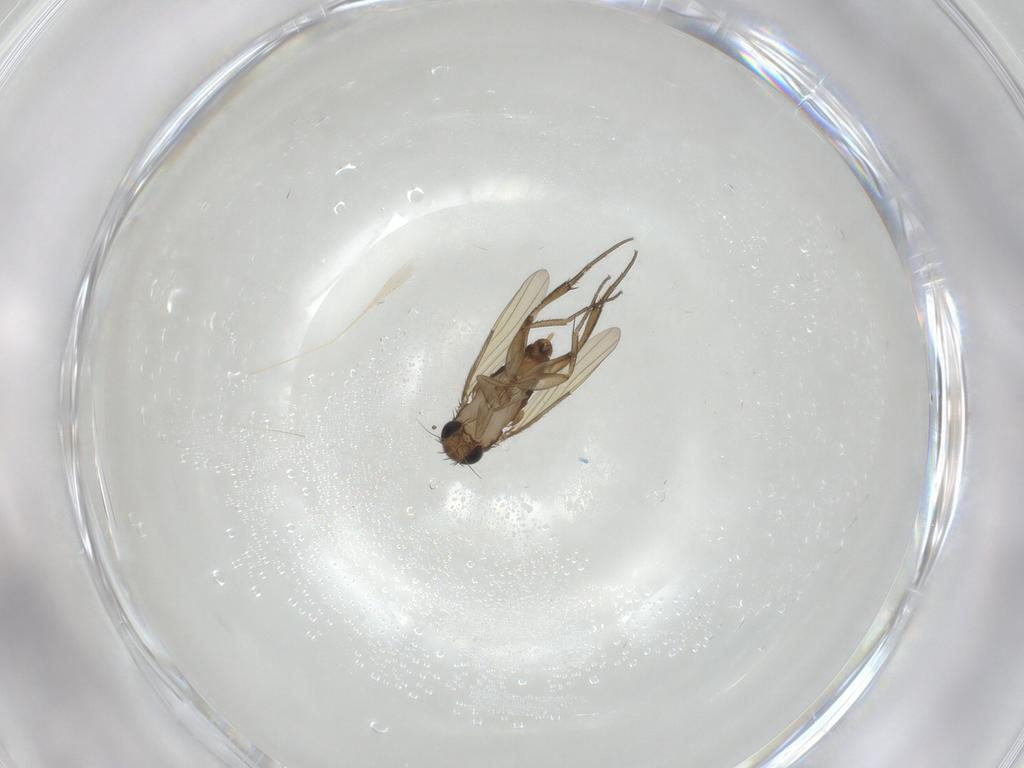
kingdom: Animalia
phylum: Arthropoda
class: Insecta
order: Diptera
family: Phoridae
